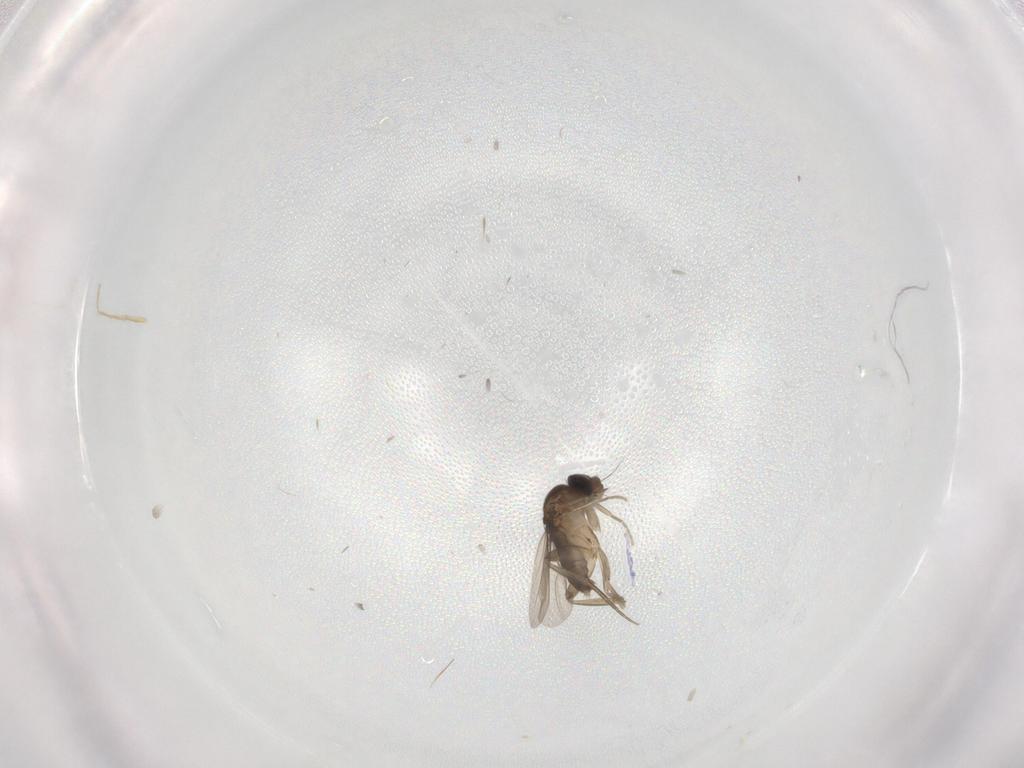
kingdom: Animalia
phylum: Arthropoda
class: Insecta
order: Diptera
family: Phoridae
